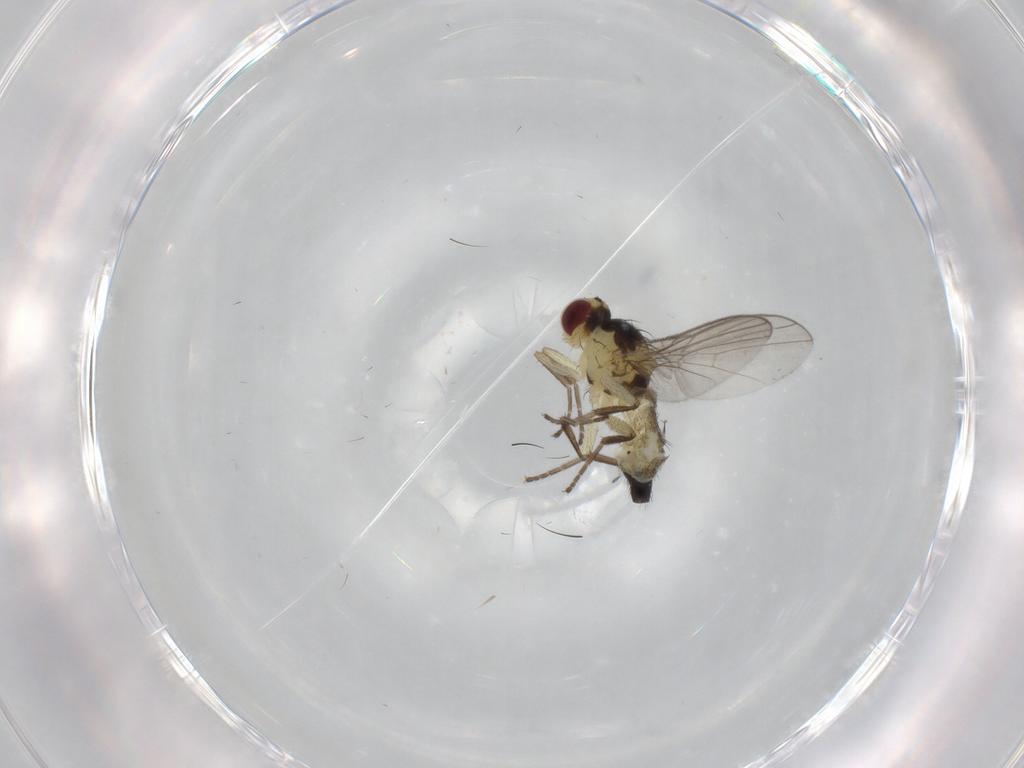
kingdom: Animalia
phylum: Arthropoda
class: Insecta
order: Diptera
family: Agromyzidae
